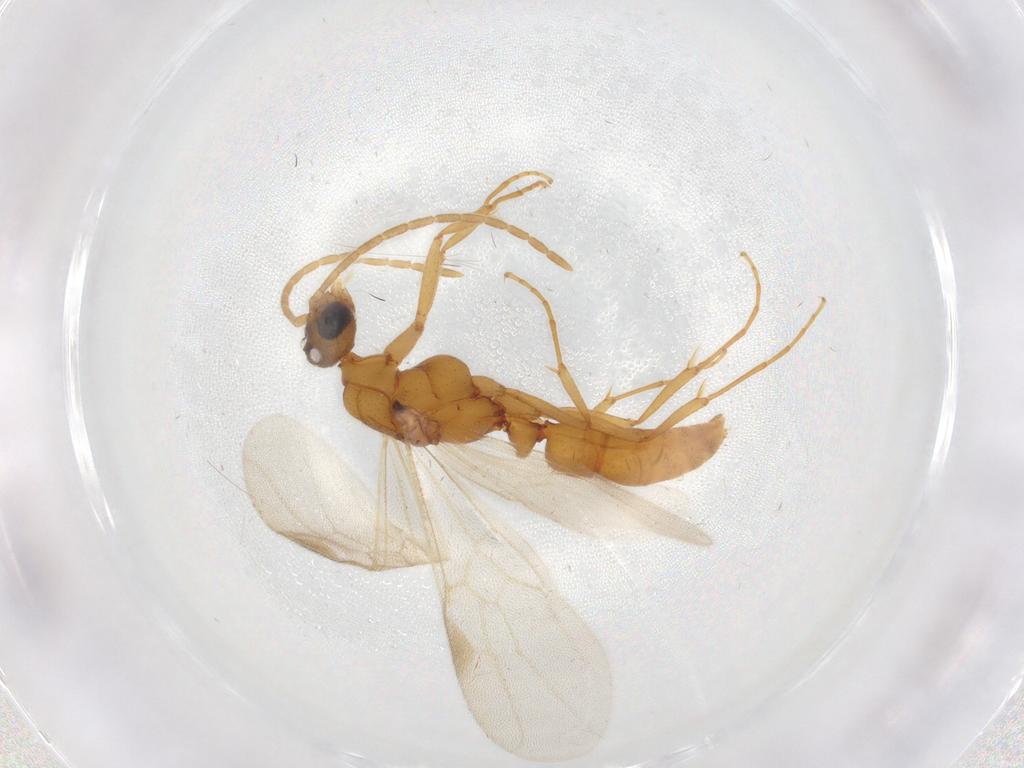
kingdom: Animalia
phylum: Arthropoda
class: Insecta
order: Hymenoptera
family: Formicidae
